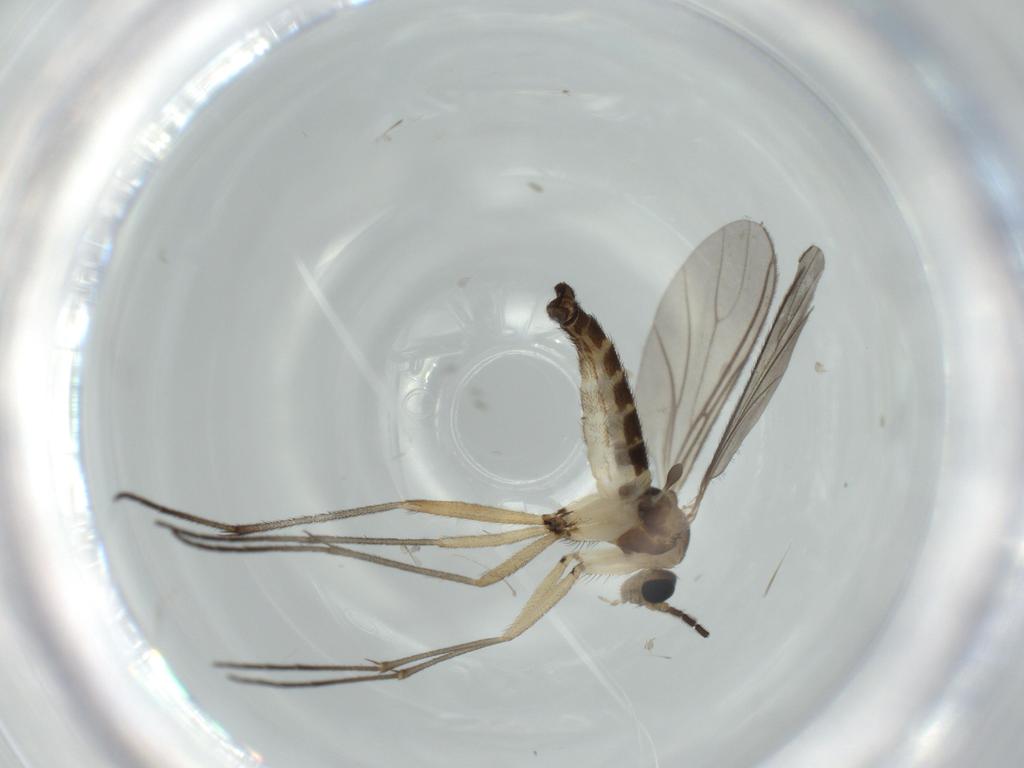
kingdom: Animalia
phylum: Arthropoda
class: Insecta
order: Diptera
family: Sciaridae
